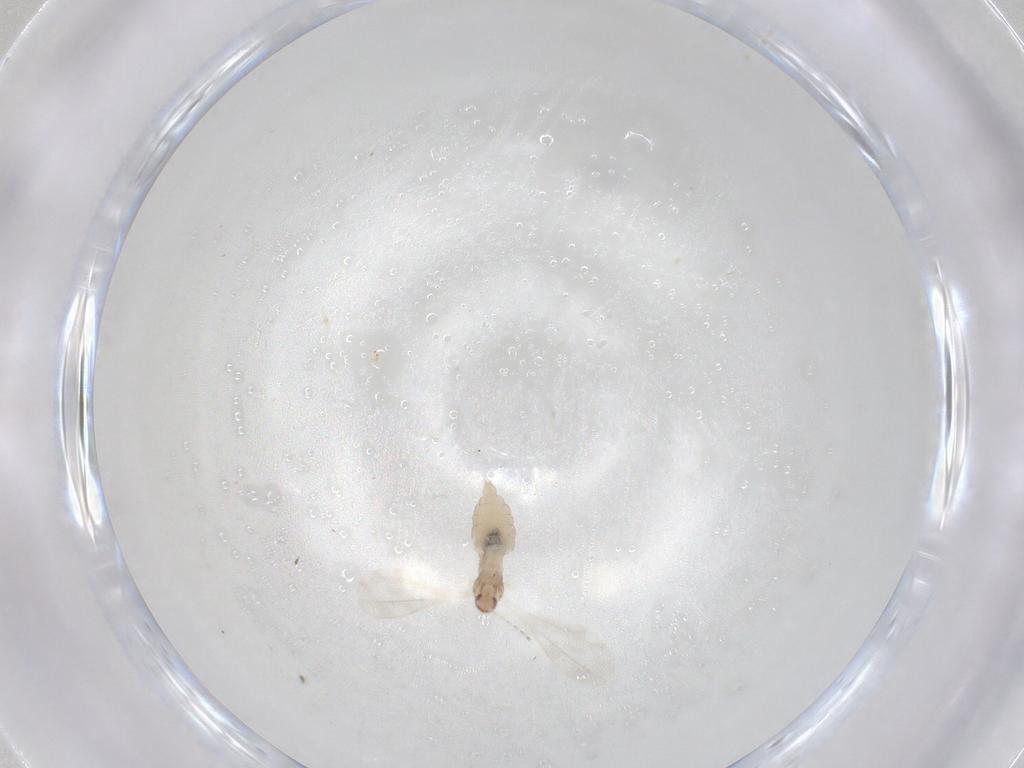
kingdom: Animalia
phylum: Arthropoda
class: Insecta
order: Diptera
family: Cecidomyiidae
